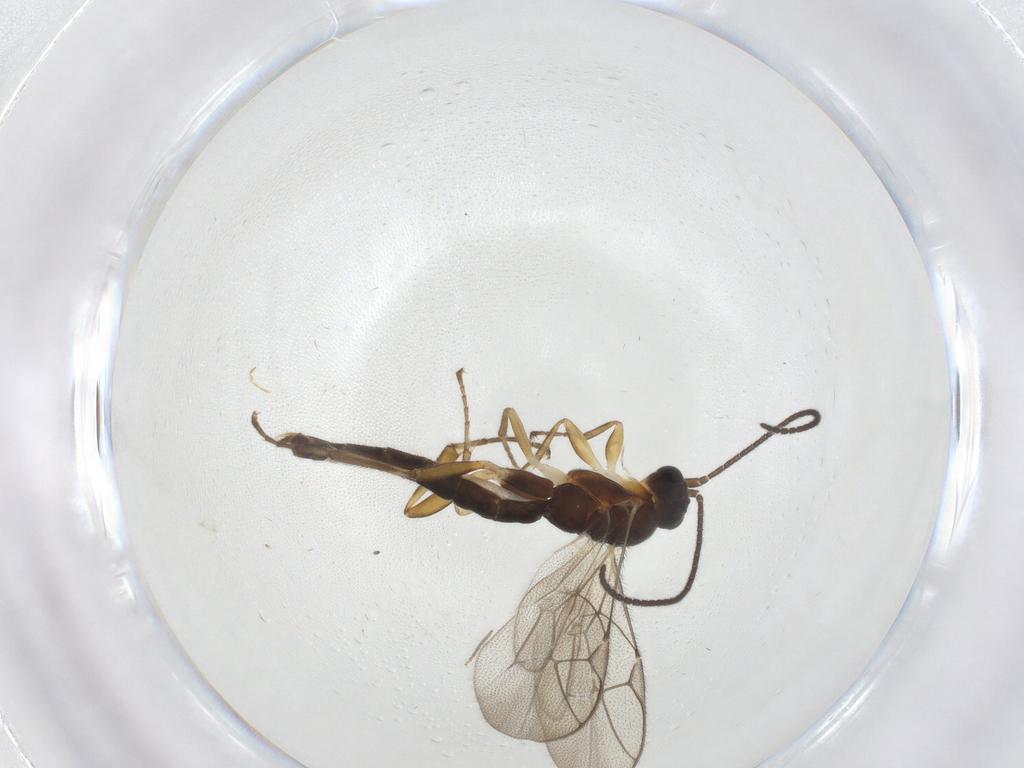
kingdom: Animalia
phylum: Arthropoda
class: Insecta
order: Hymenoptera
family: Ichneumonidae
